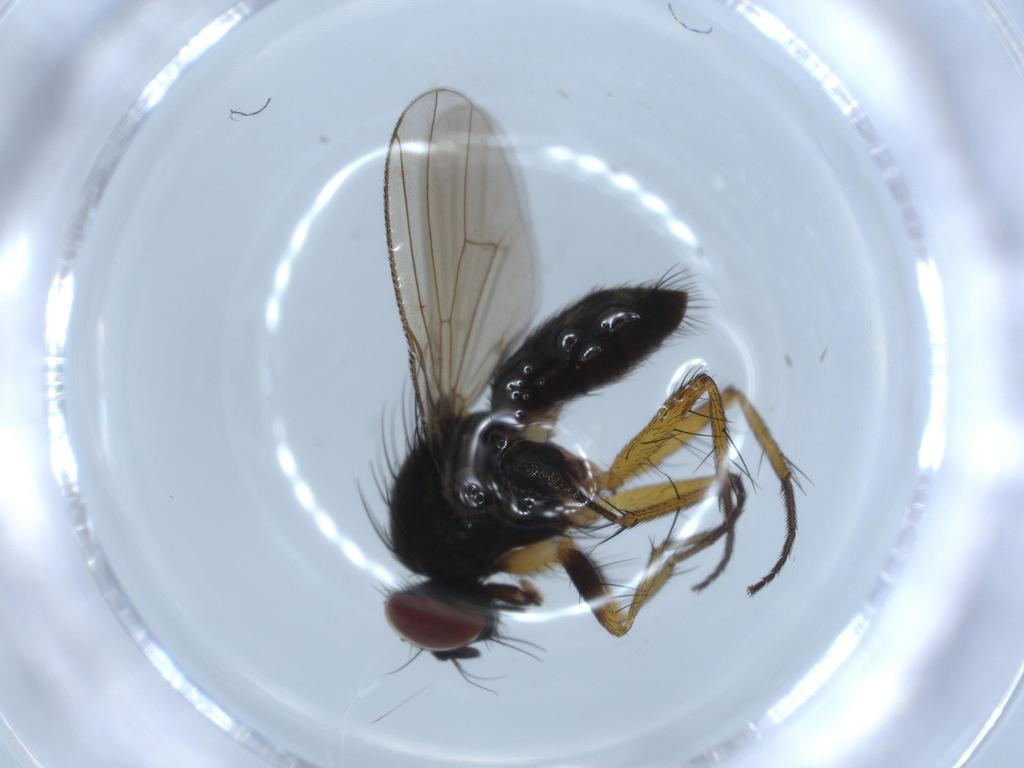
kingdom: Animalia
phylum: Arthropoda
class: Insecta
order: Diptera
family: Muscidae
